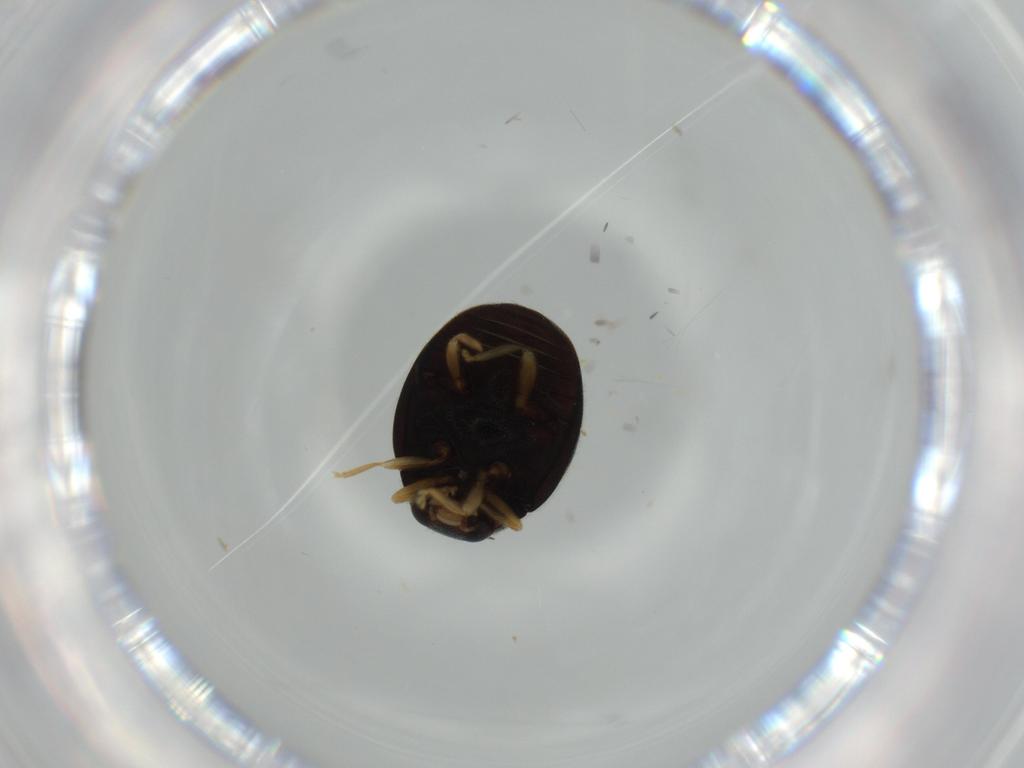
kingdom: Animalia
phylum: Arthropoda
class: Insecta
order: Coleoptera
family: Coccinellidae
